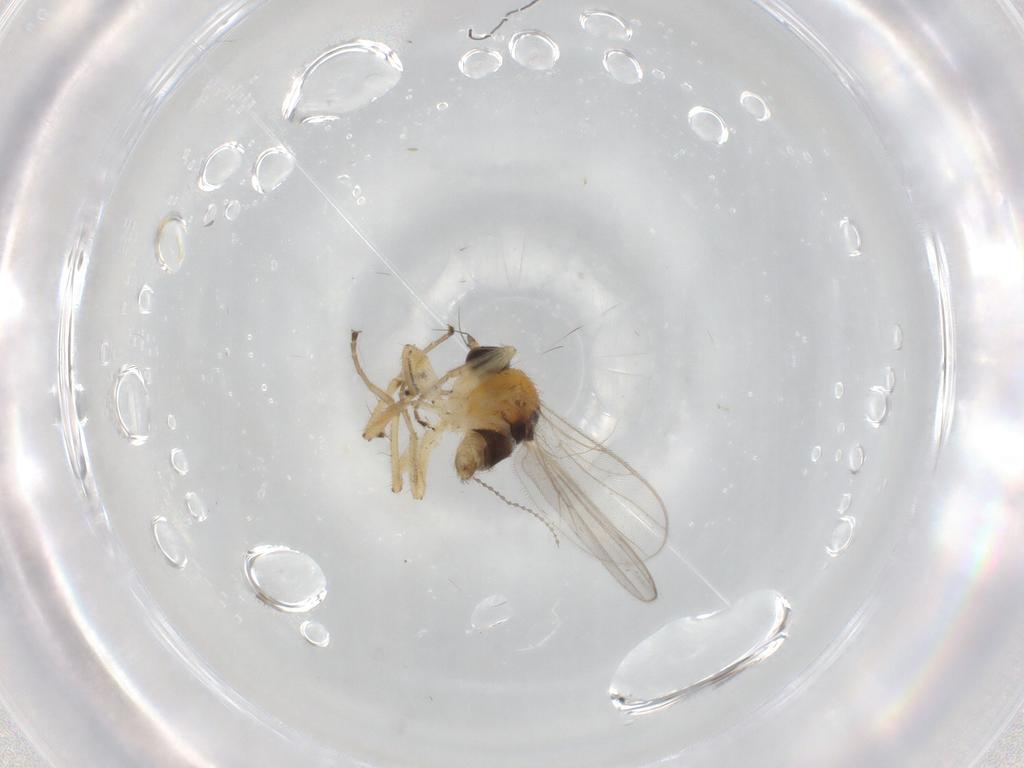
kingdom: Animalia
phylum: Arthropoda
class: Insecta
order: Diptera
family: Hybotidae
